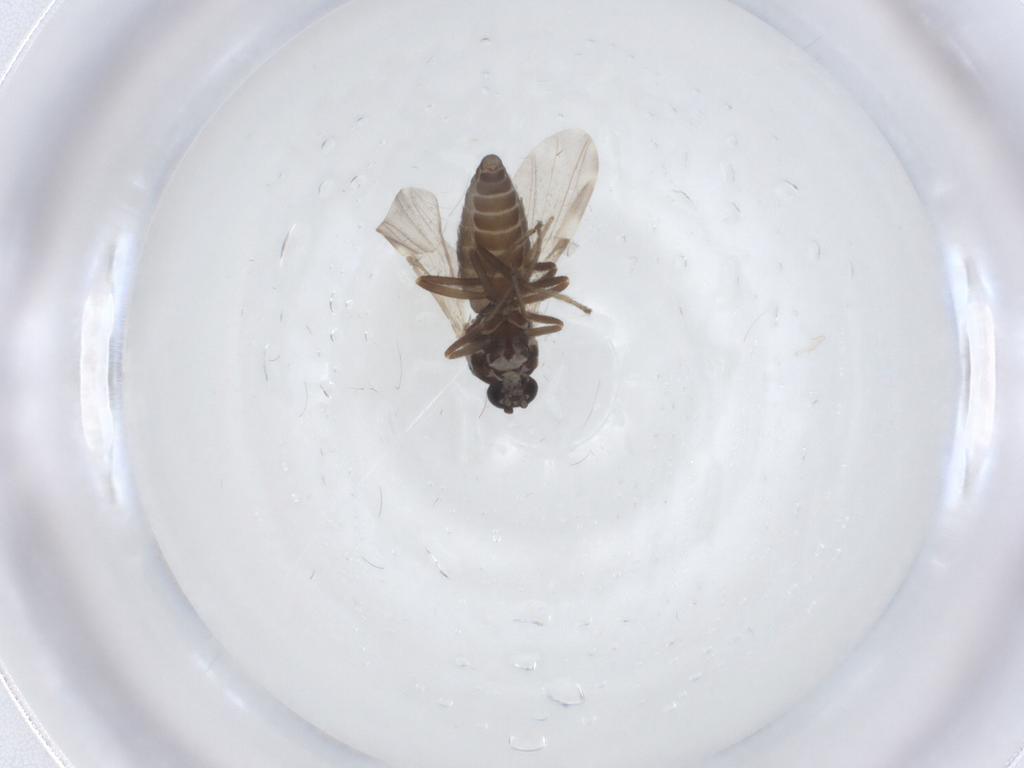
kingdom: Animalia
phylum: Arthropoda
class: Insecta
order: Diptera
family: Ceratopogonidae
